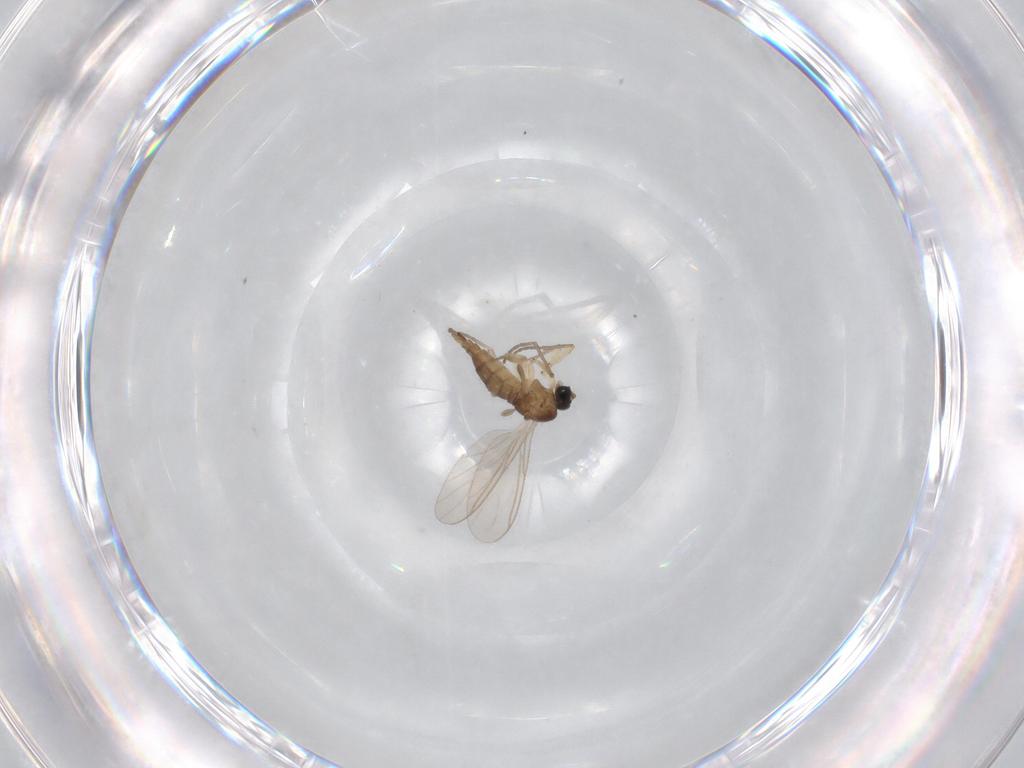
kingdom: Animalia
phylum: Arthropoda
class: Insecta
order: Diptera
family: Sciaridae
